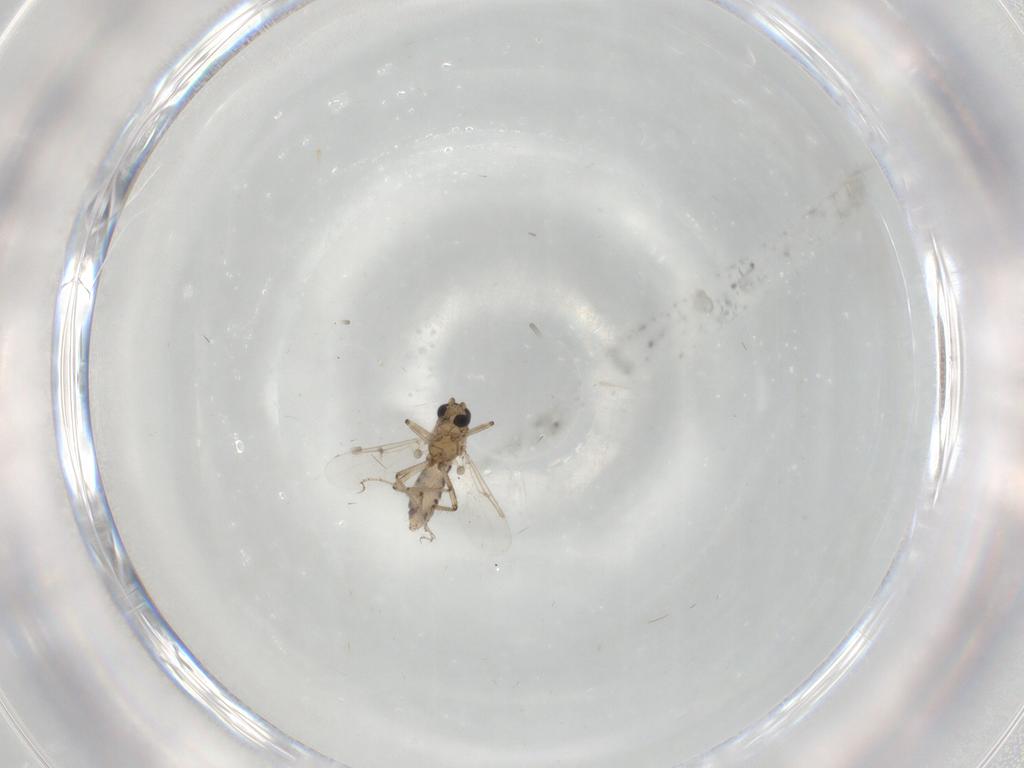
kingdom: Animalia
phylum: Arthropoda
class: Insecta
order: Diptera
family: Ceratopogonidae
